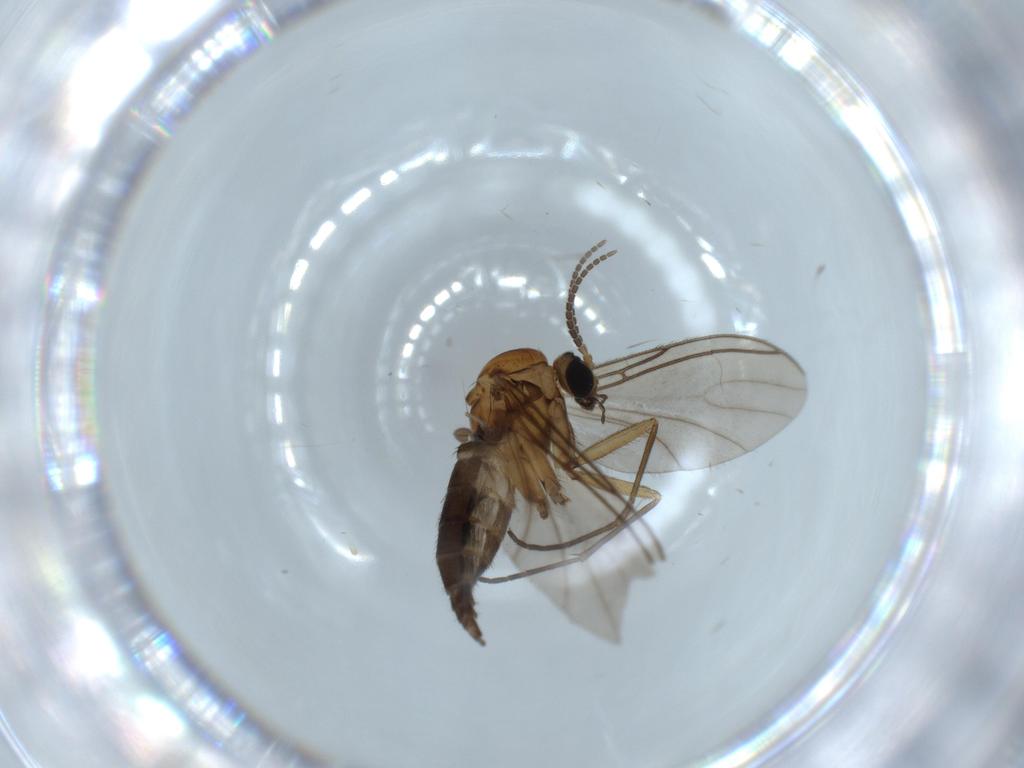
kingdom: Animalia
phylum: Arthropoda
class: Insecta
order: Diptera
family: Sciaridae
